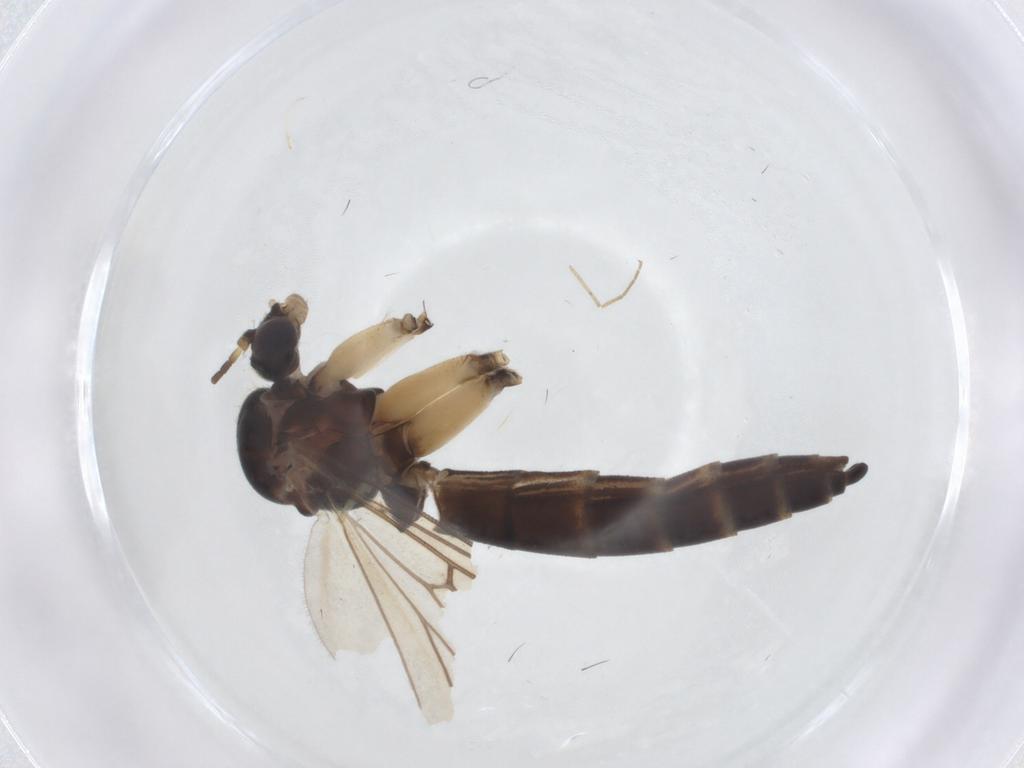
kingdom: Animalia
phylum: Arthropoda
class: Insecta
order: Diptera
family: Mycetophilidae
